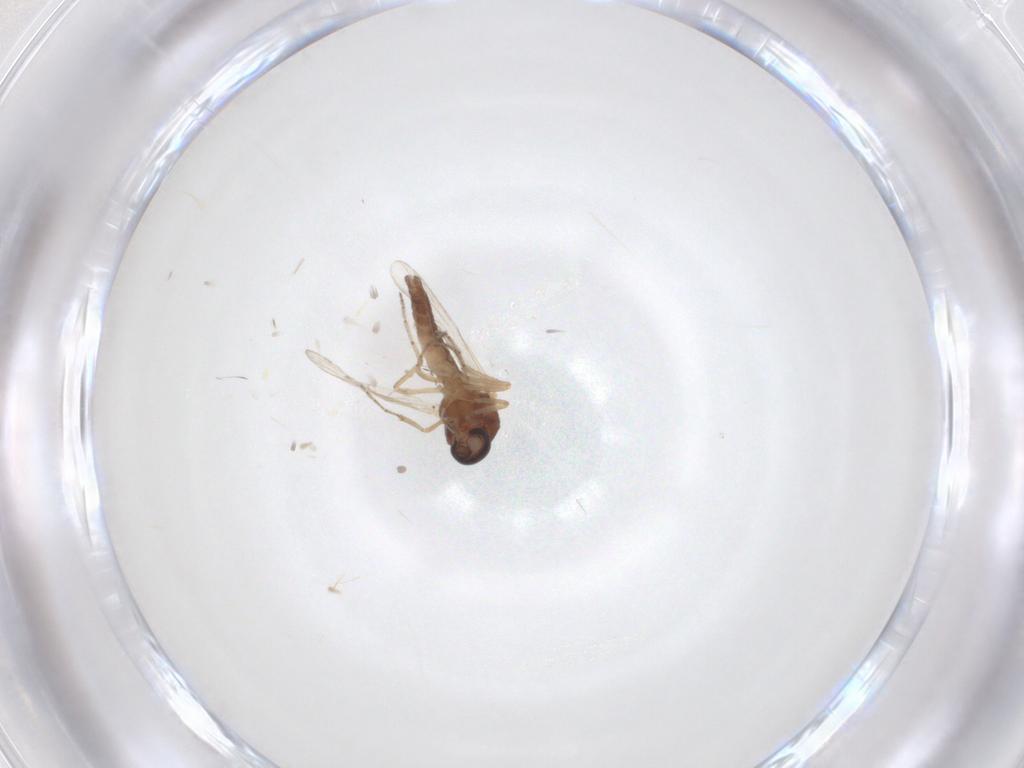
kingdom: Animalia
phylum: Arthropoda
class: Insecta
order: Diptera
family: Ceratopogonidae
